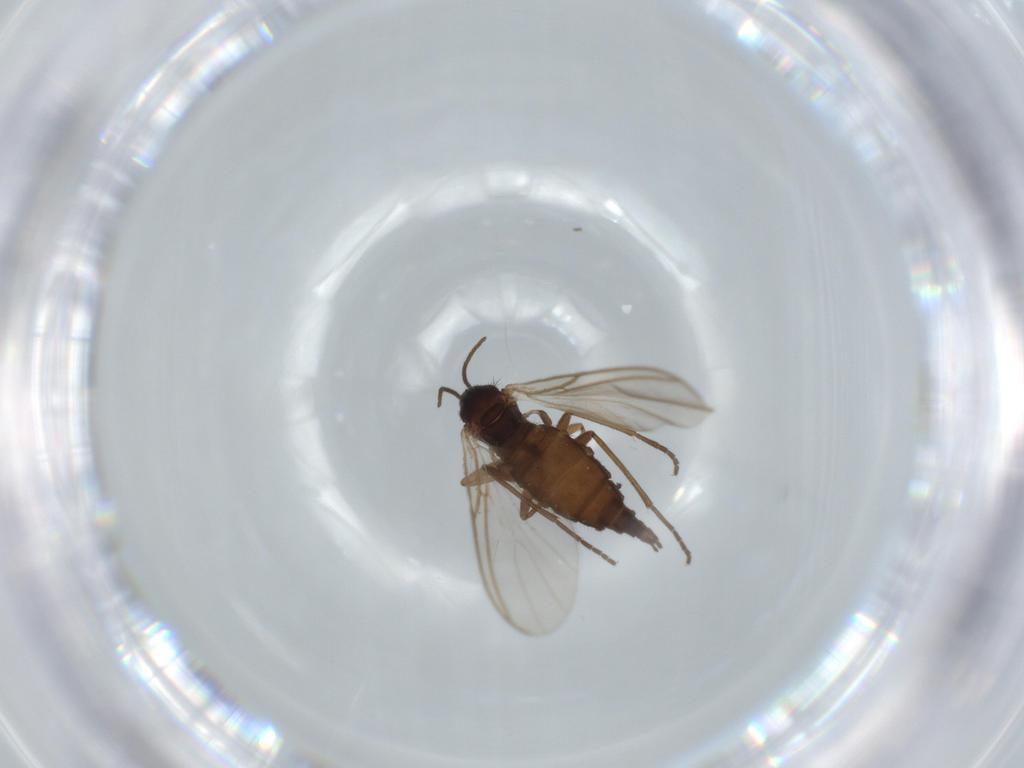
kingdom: Animalia
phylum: Arthropoda
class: Insecta
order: Diptera
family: Sciaridae
